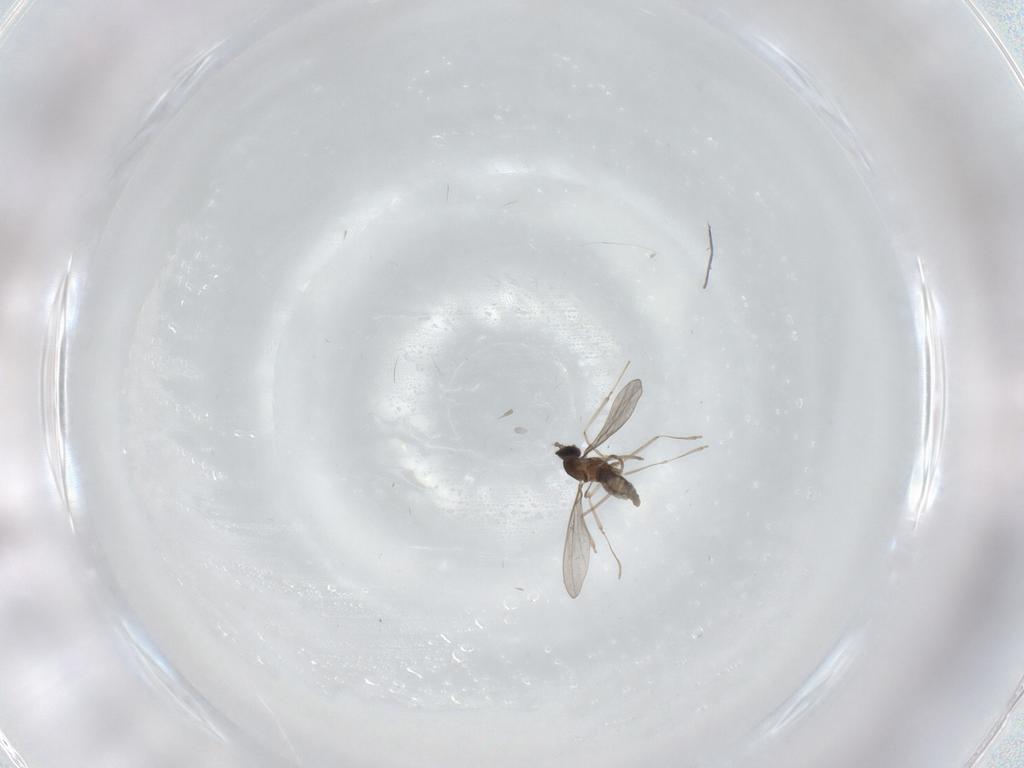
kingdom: Animalia
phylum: Arthropoda
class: Insecta
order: Diptera
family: Cecidomyiidae
